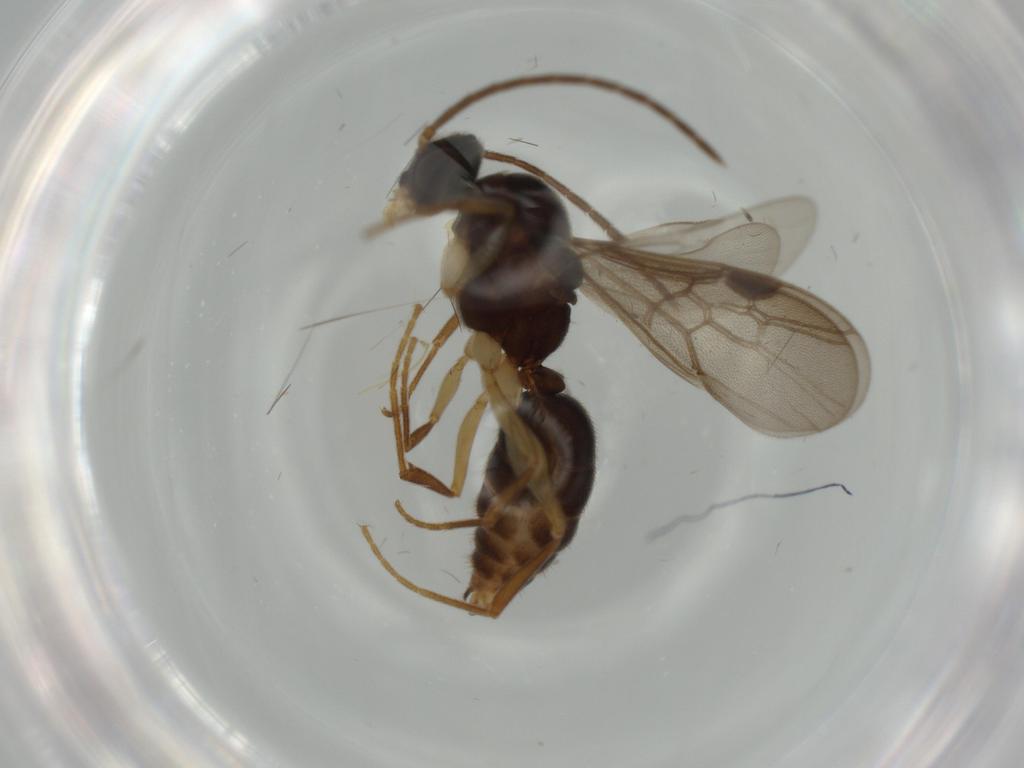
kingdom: Animalia
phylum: Arthropoda
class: Insecta
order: Hymenoptera
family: Formicidae
